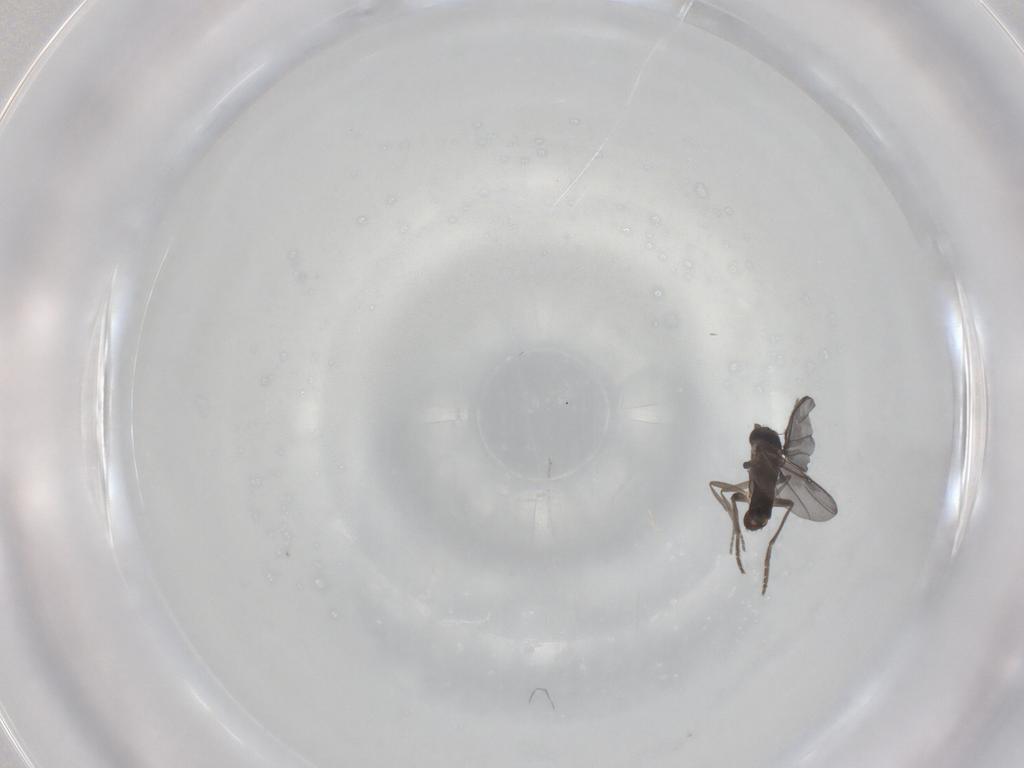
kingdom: Animalia
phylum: Arthropoda
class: Insecta
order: Diptera
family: Phoridae
